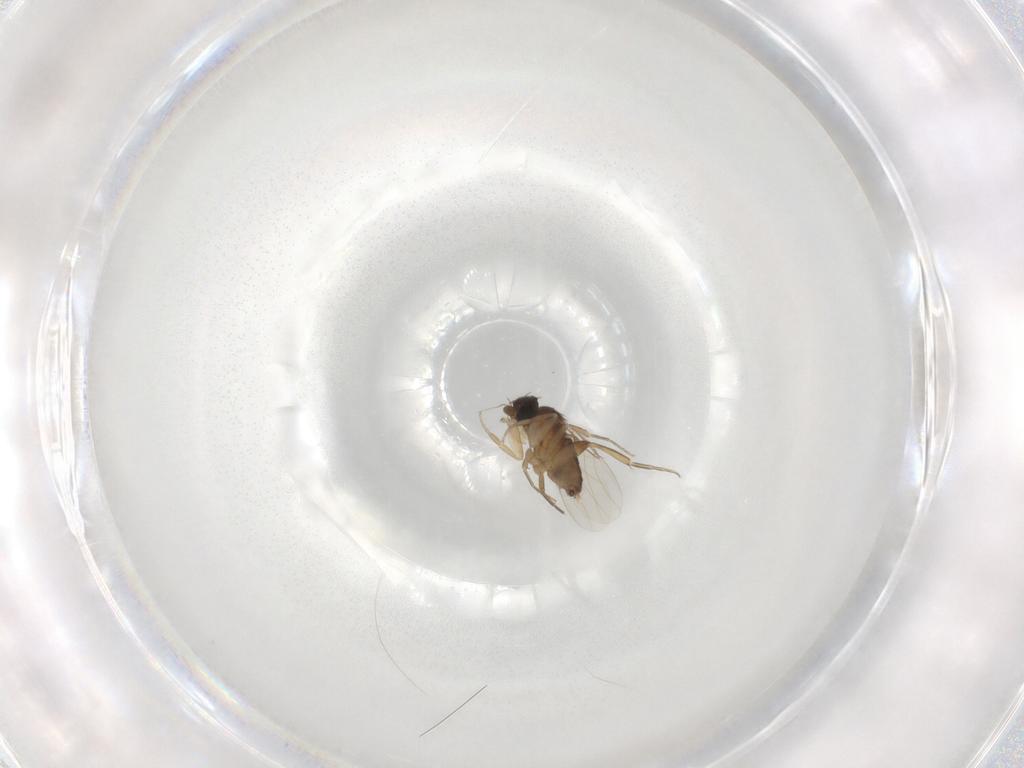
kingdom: Animalia
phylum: Arthropoda
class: Insecta
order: Diptera
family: Phoridae
